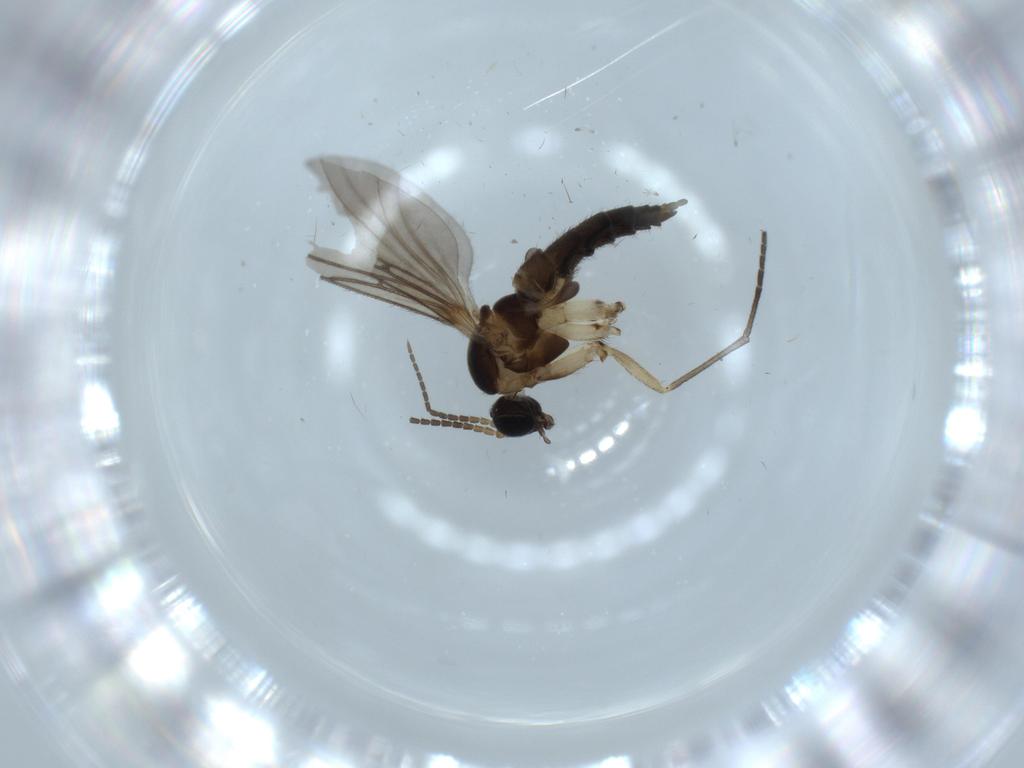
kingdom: Animalia
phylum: Arthropoda
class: Insecta
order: Diptera
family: Sciaridae
